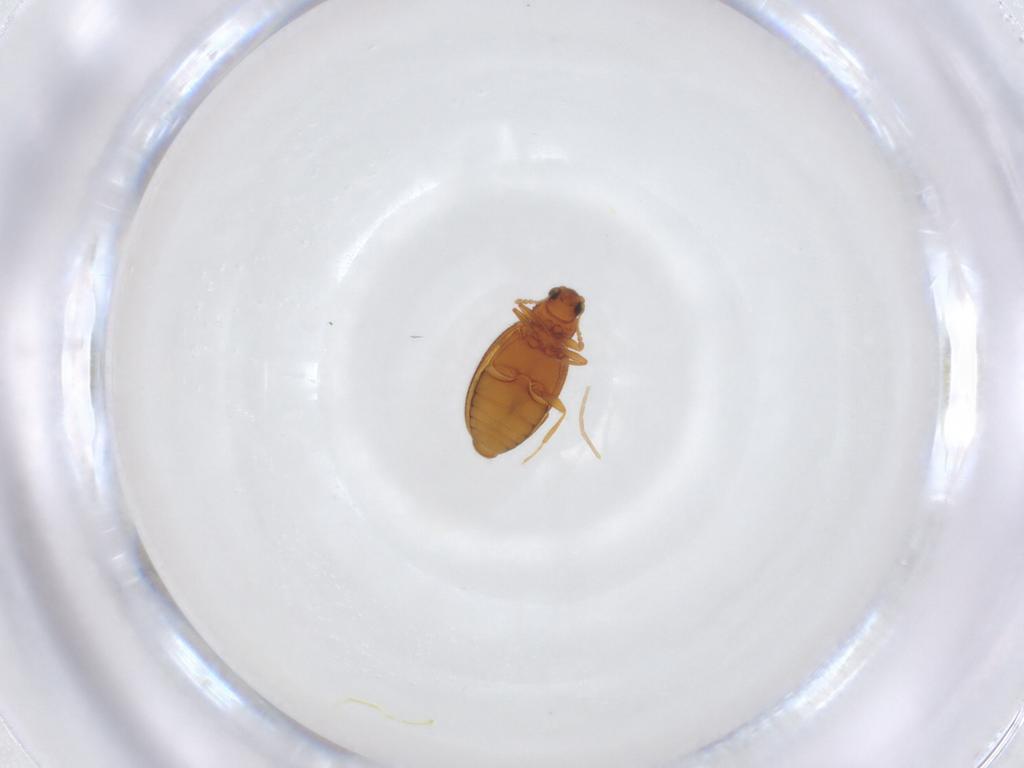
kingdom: Animalia
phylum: Arthropoda
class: Insecta
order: Coleoptera
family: Latridiidae
